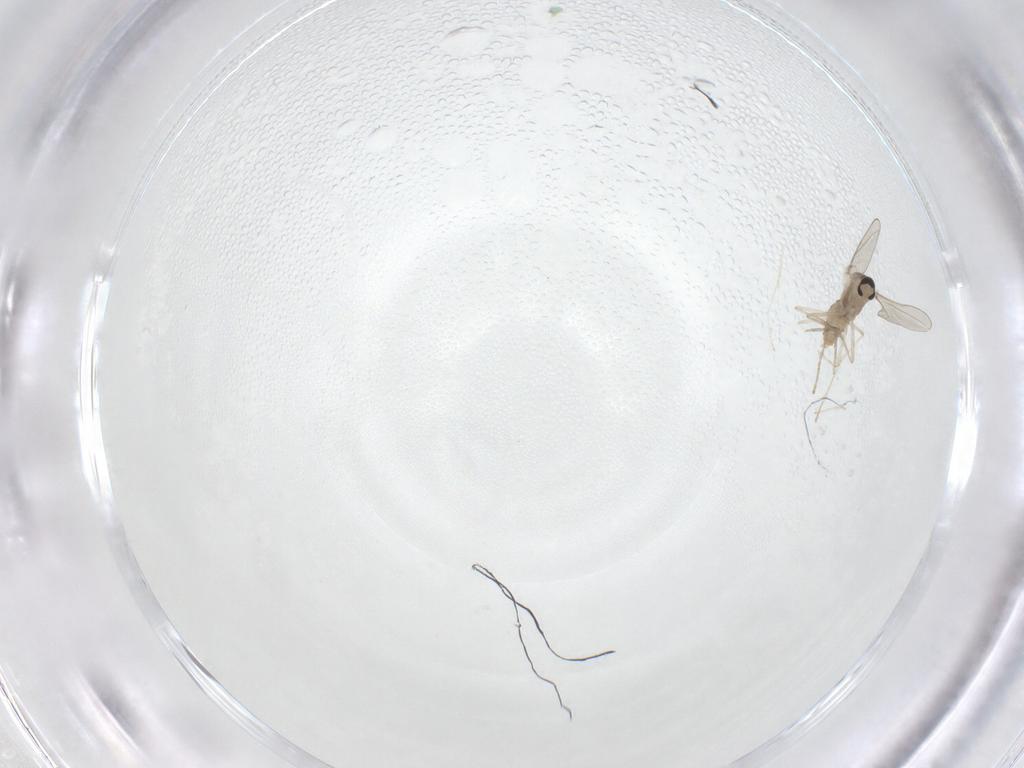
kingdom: Animalia
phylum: Arthropoda
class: Insecta
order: Diptera
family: Cecidomyiidae
